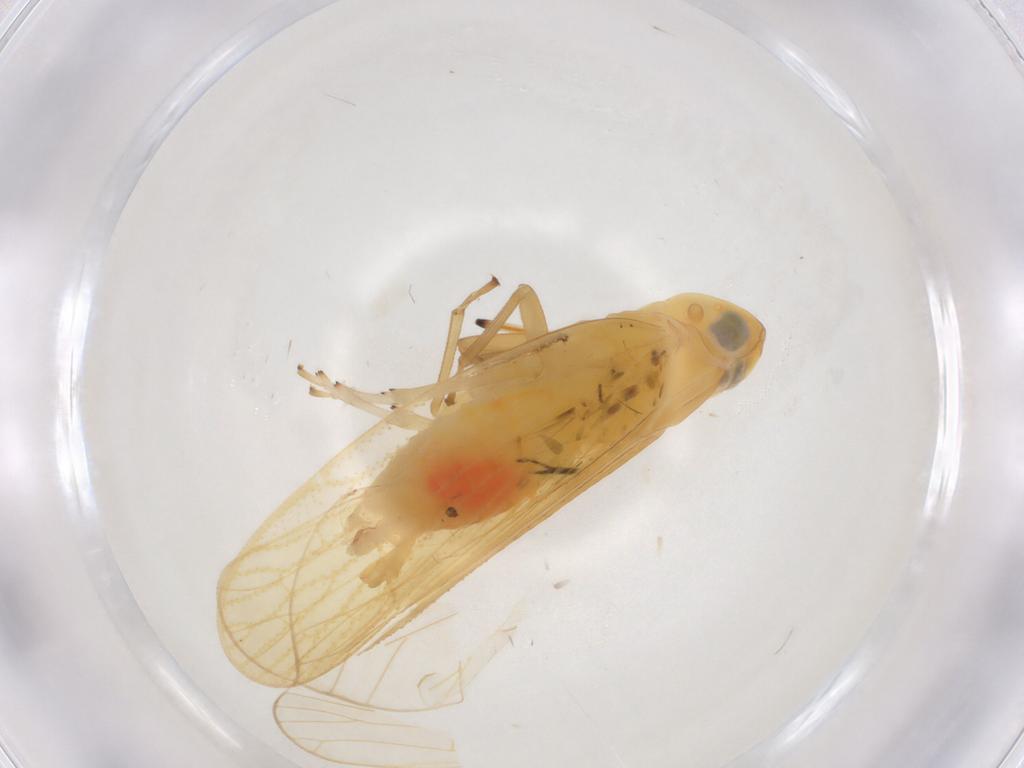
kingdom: Animalia
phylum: Arthropoda
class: Insecta
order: Hemiptera
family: Cixiidae
